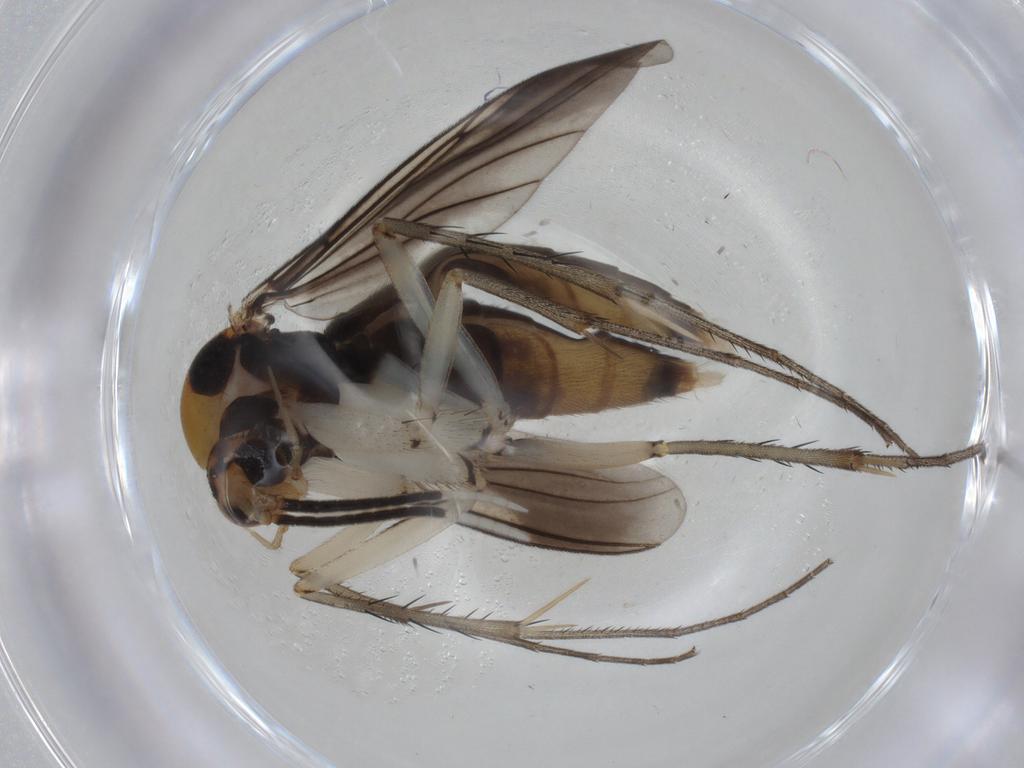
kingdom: Animalia
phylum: Arthropoda
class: Insecta
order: Diptera
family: Mycetophilidae
